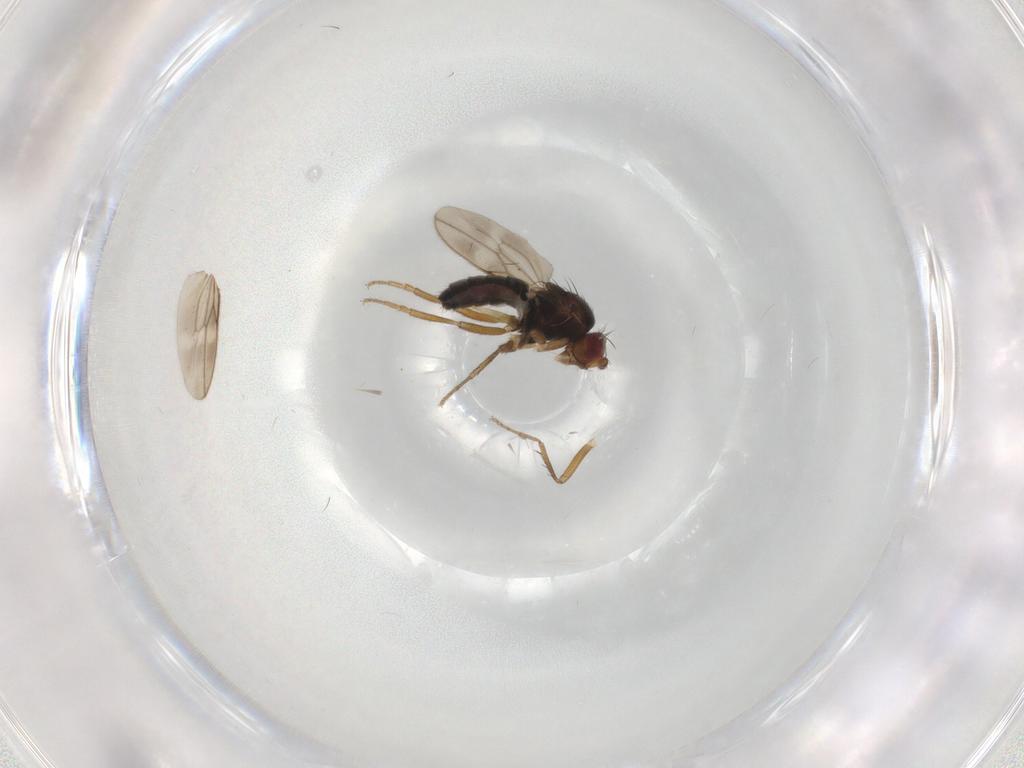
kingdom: Animalia
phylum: Arthropoda
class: Insecta
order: Diptera
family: Sphaeroceridae
